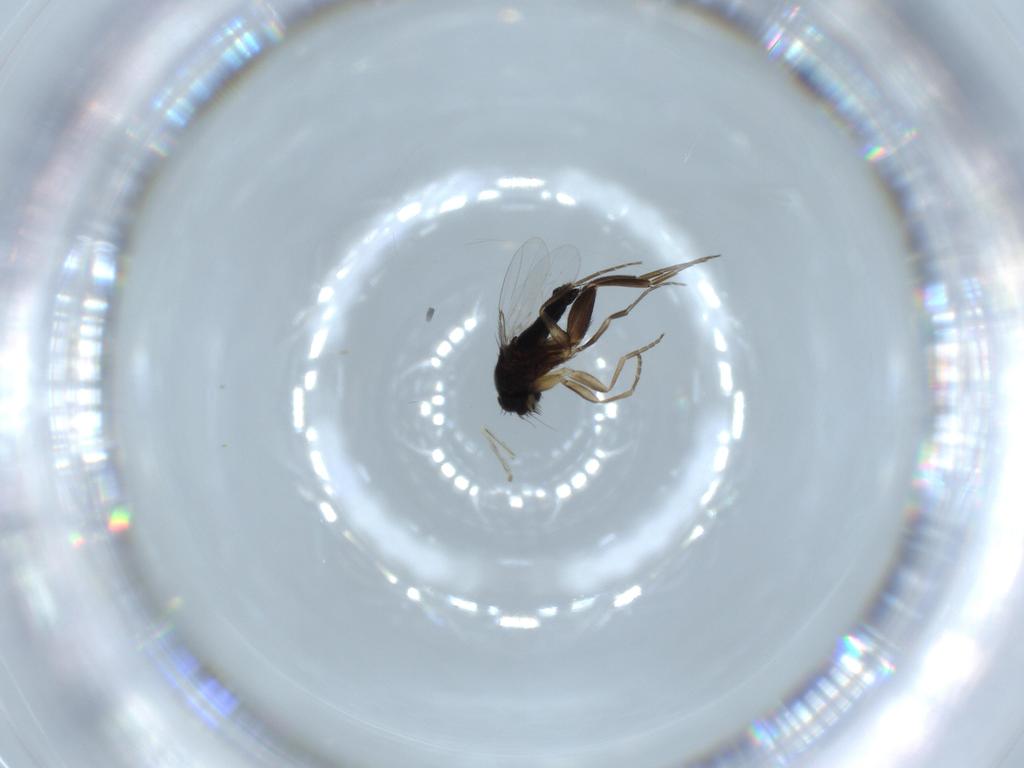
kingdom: Animalia
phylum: Arthropoda
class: Insecta
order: Diptera
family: Phoridae
